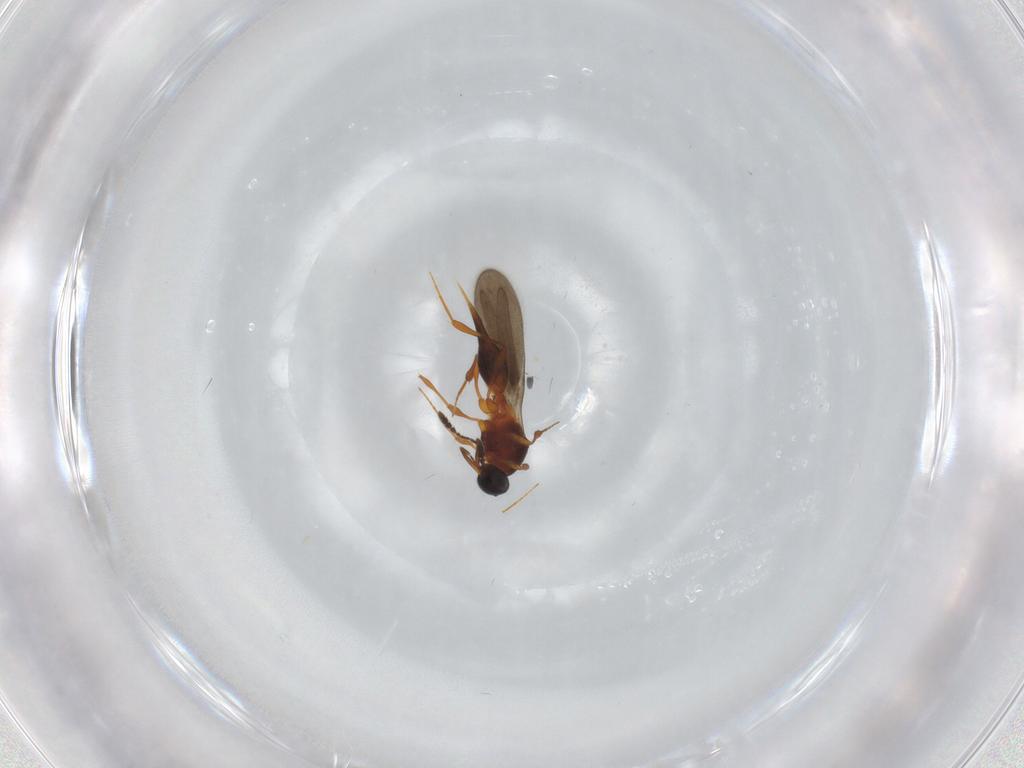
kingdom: Animalia
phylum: Arthropoda
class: Insecta
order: Hymenoptera
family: Platygastridae
